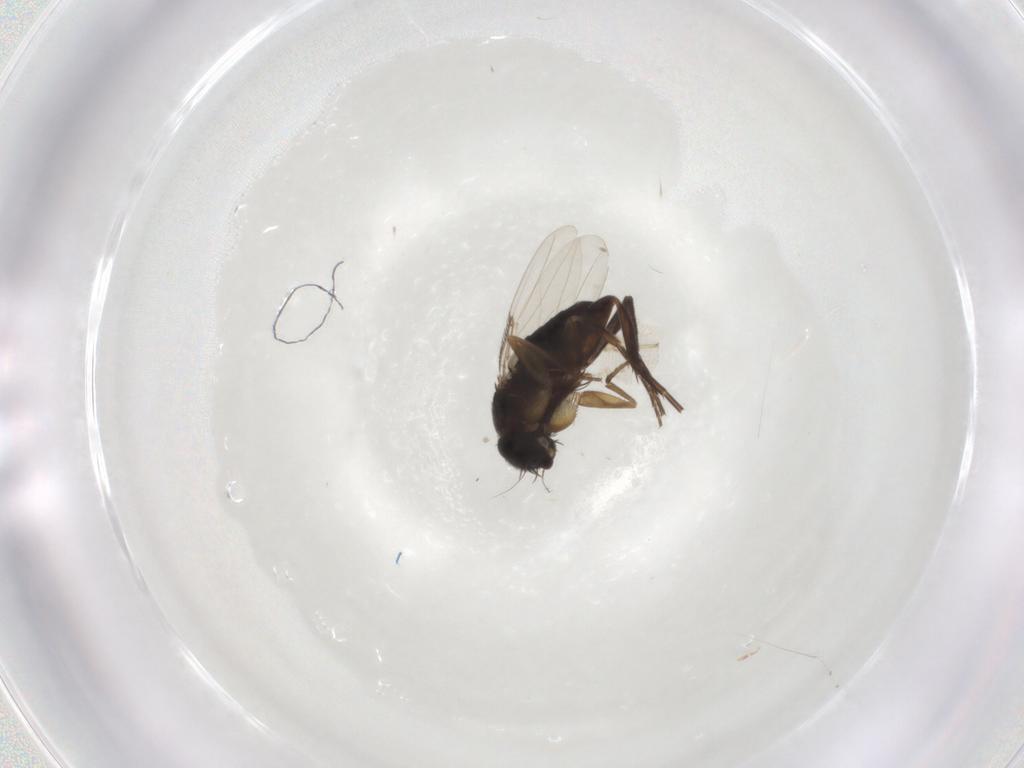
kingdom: Animalia
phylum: Arthropoda
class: Insecta
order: Diptera
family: Phoridae
